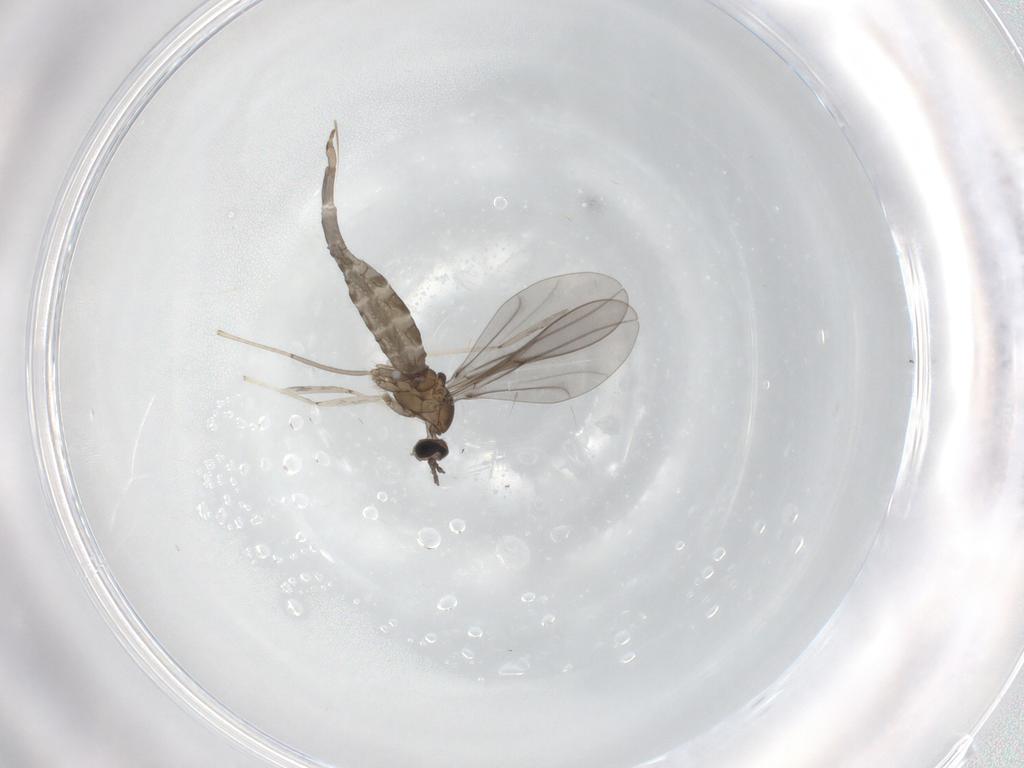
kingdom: Animalia
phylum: Arthropoda
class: Insecta
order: Diptera
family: Cecidomyiidae
